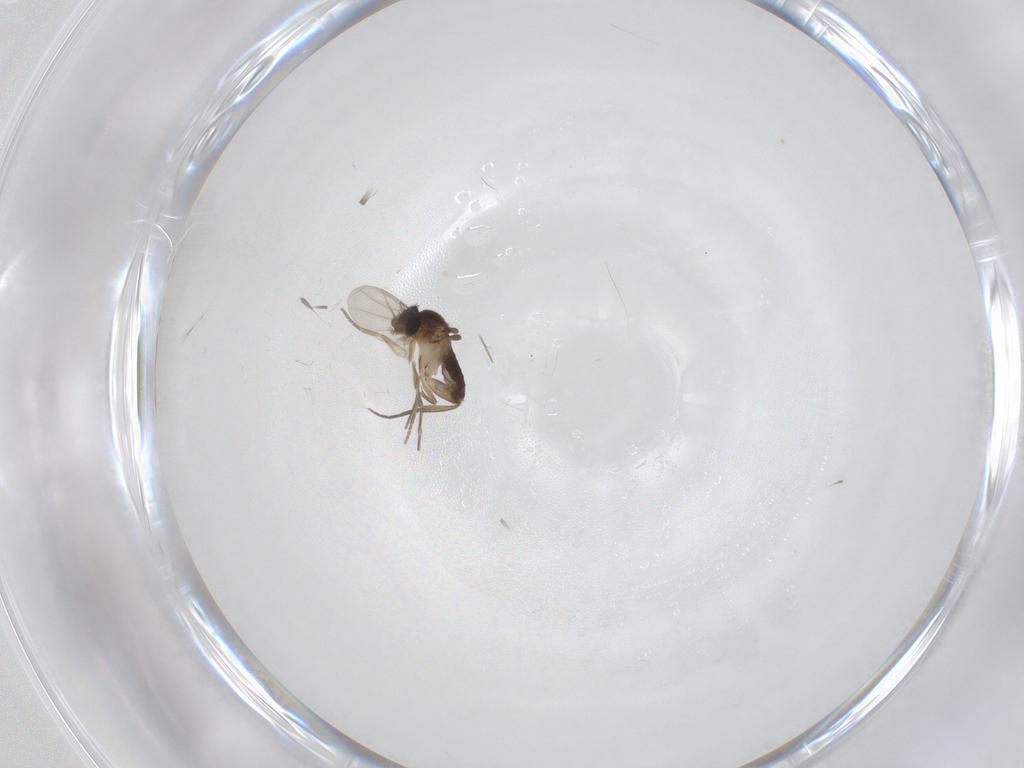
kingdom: Animalia
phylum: Arthropoda
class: Insecta
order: Diptera
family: Phoridae
